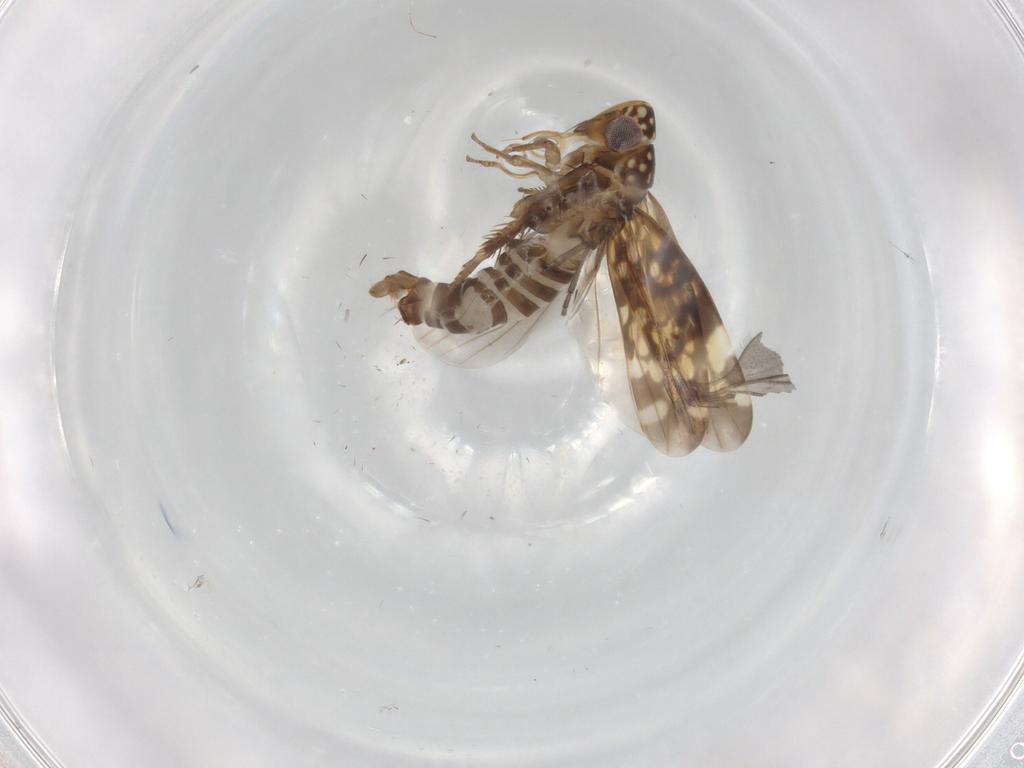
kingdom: Animalia
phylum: Arthropoda
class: Insecta
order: Hemiptera
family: Cicadellidae
